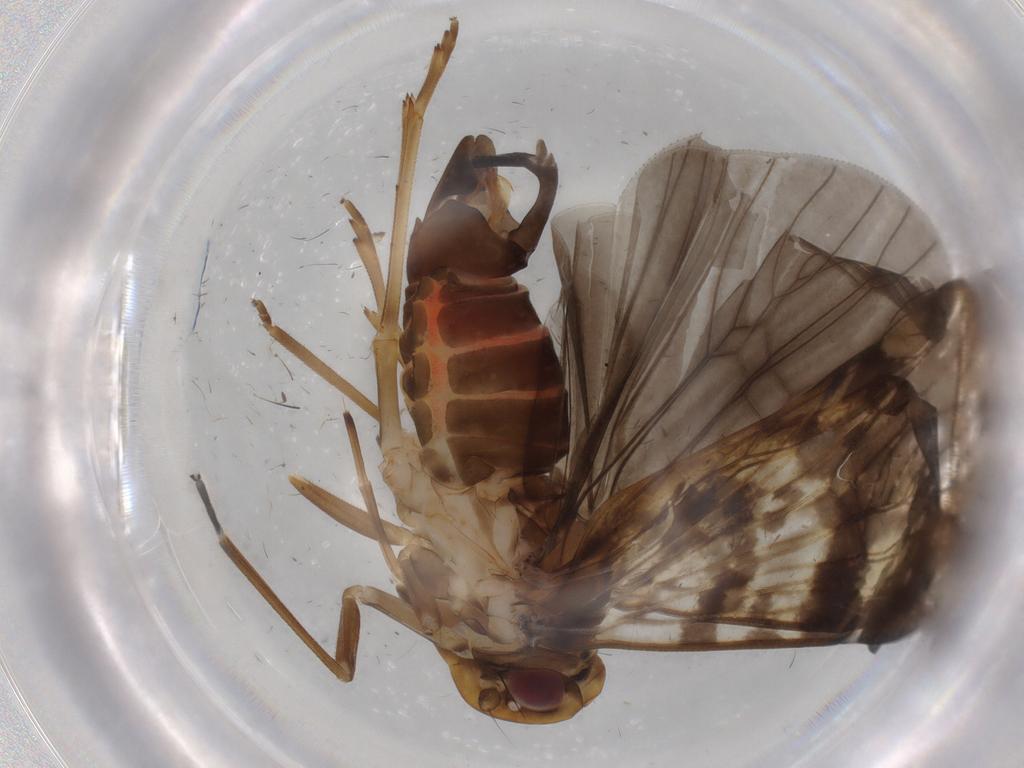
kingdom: Animalia
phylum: Arthropoda
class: Insecta
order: Hemiptera
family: Cixiidae
